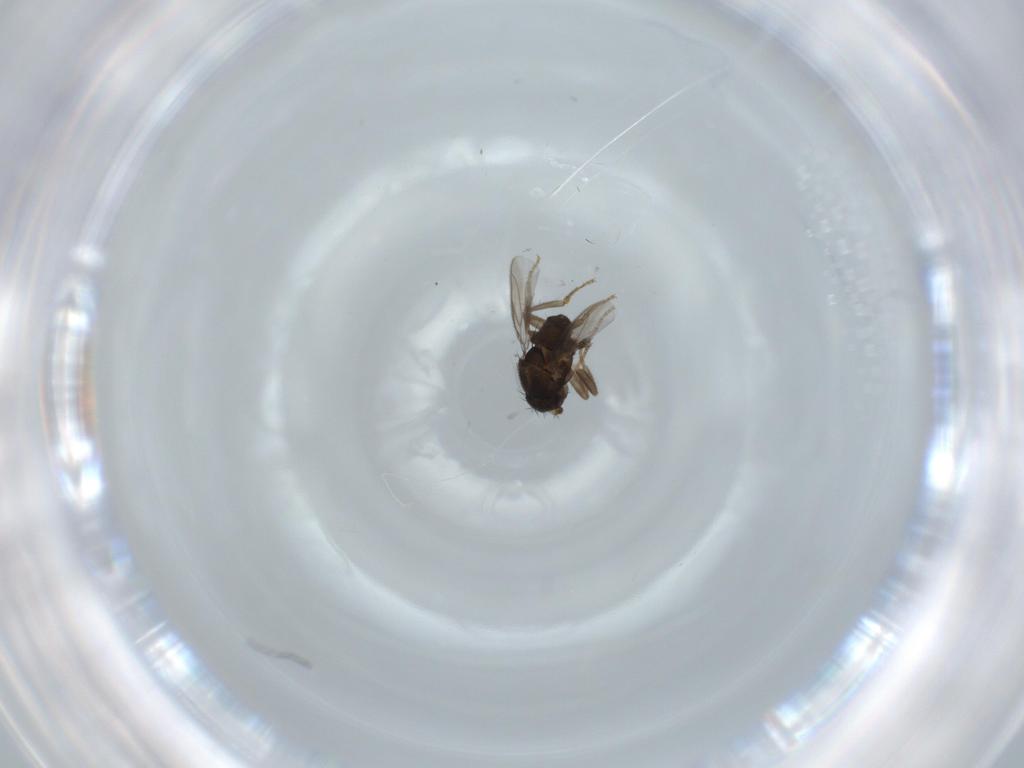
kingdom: Animalia
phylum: Arthropoda
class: Insecta
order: Diptera
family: Sphaeroceridae
